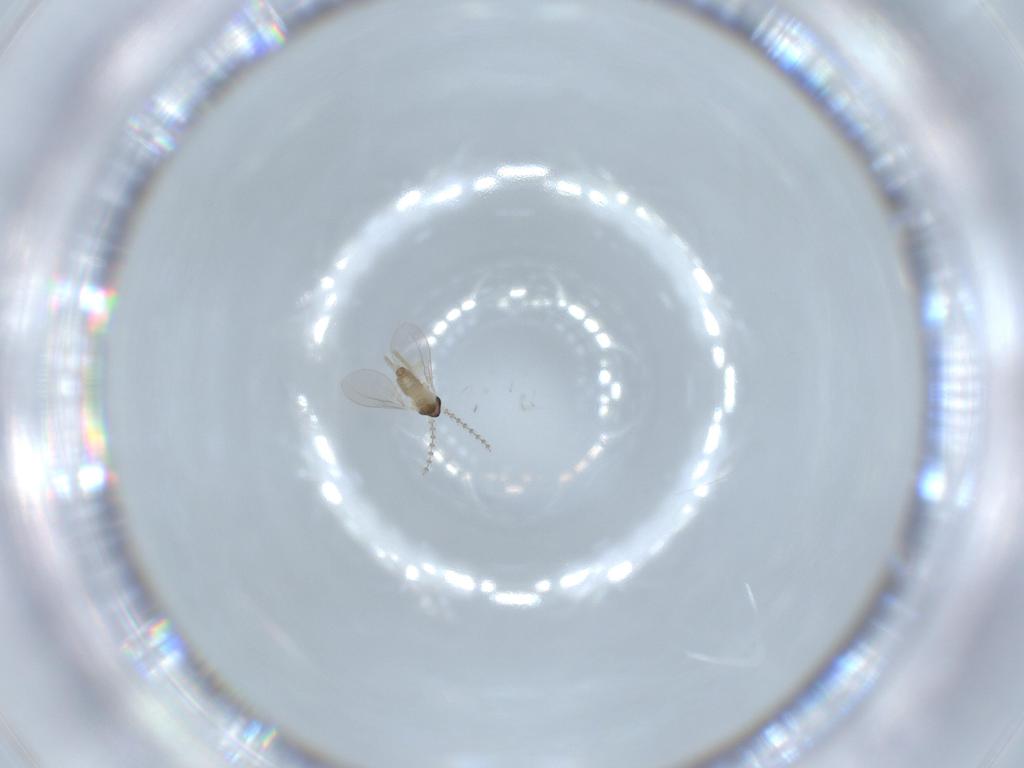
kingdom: Animalia
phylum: Arthropoda
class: Insecta
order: Diptera
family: Cecidomyiidae
